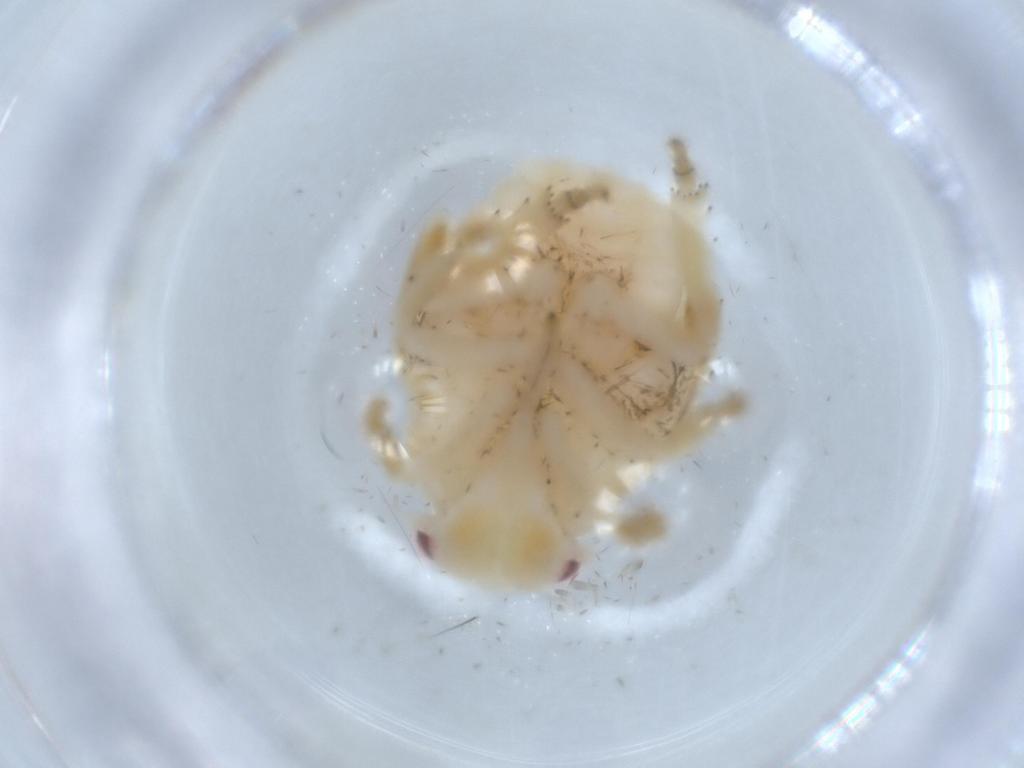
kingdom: Animalia
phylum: Arthropoda
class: Insecta
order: Hemiptera
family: Flatidae
